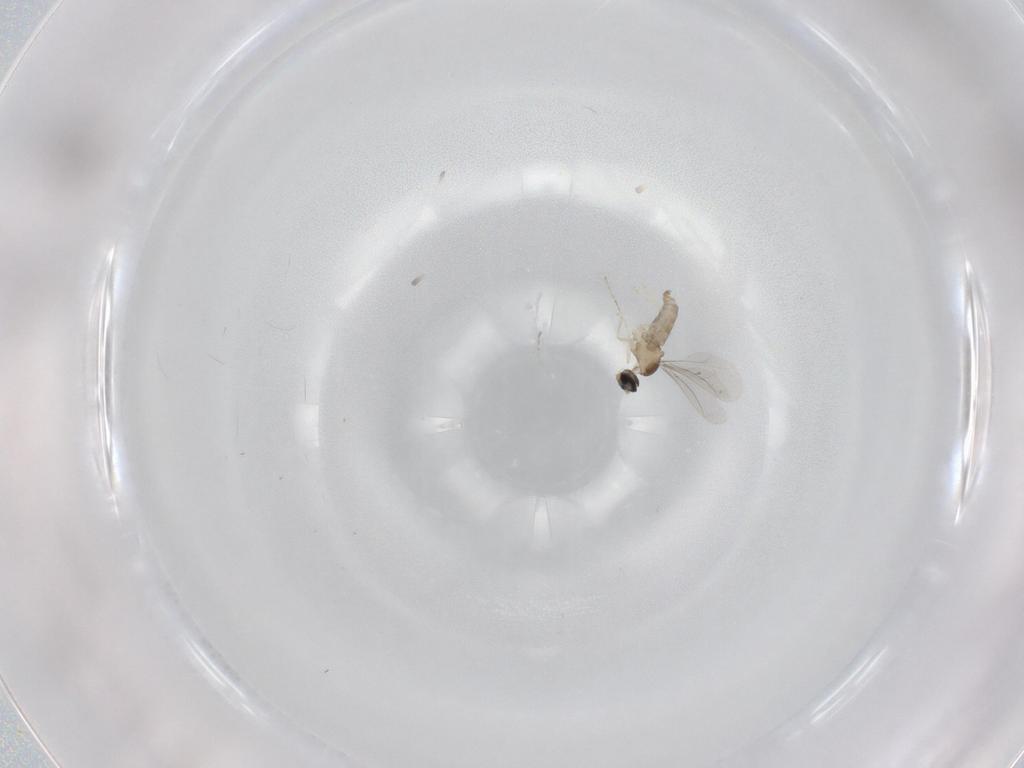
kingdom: Animalia
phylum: Arthropoda
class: Insecta
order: Diptera
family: Cecidomyiidae
